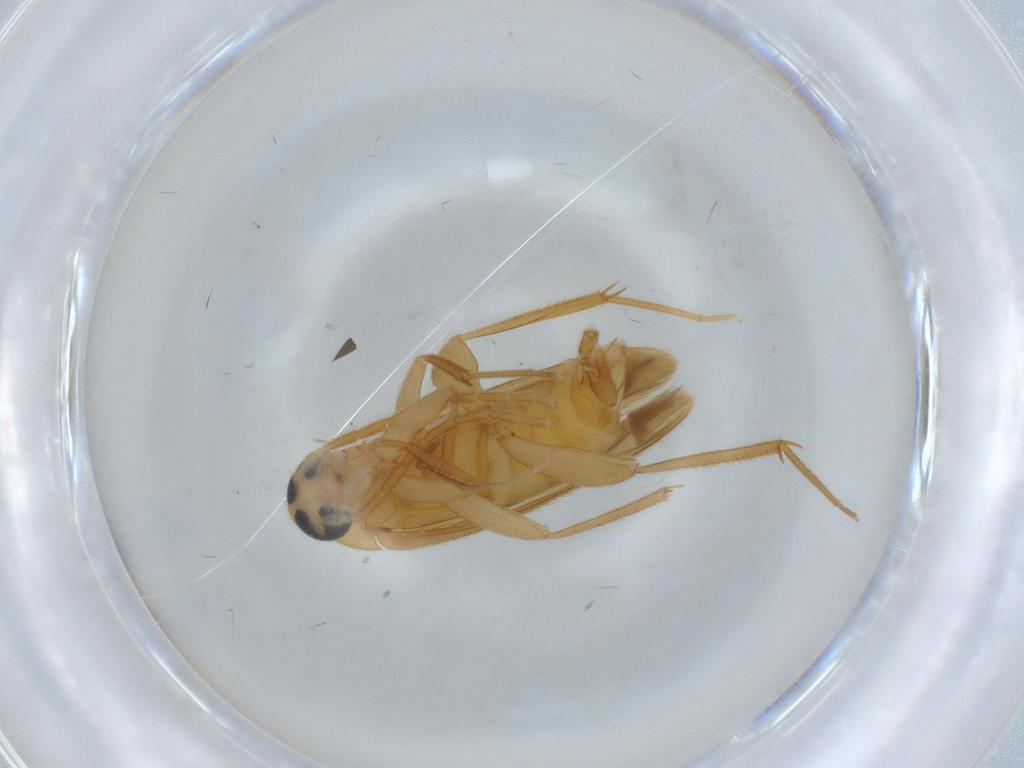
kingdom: Animalia
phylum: Arthropoda
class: Insecta
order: Coleoptera
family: Scraptiidae
